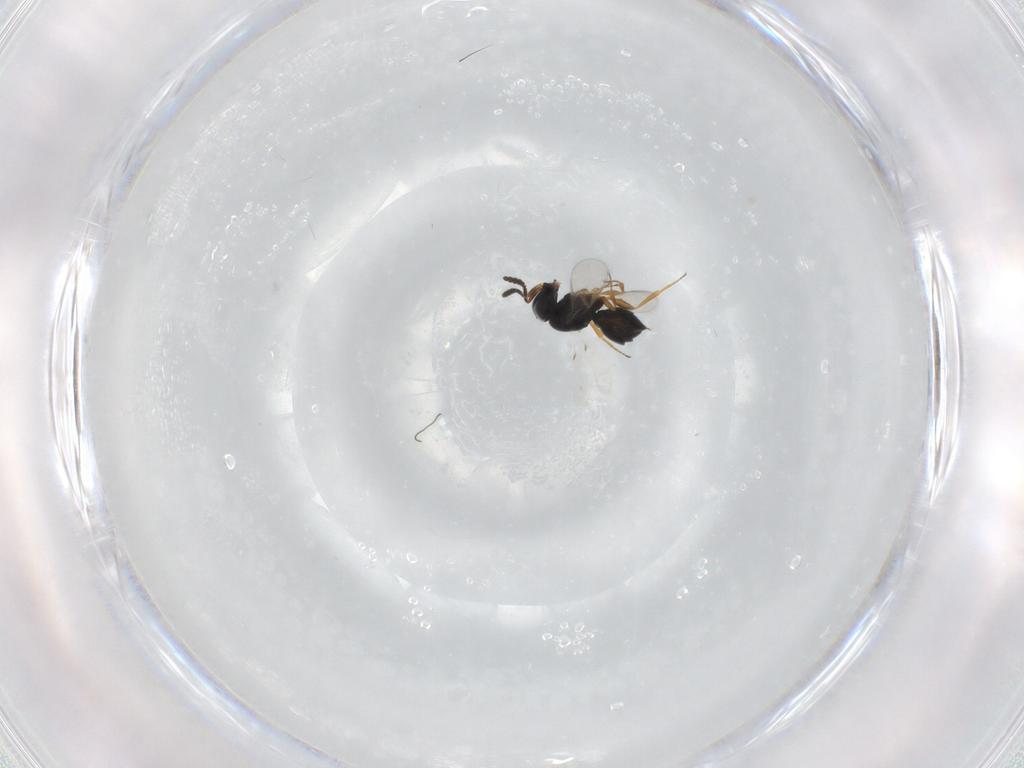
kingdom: Animalia
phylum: Arthropoda
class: Insecta
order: Hymenoptera
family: Scelionidae
